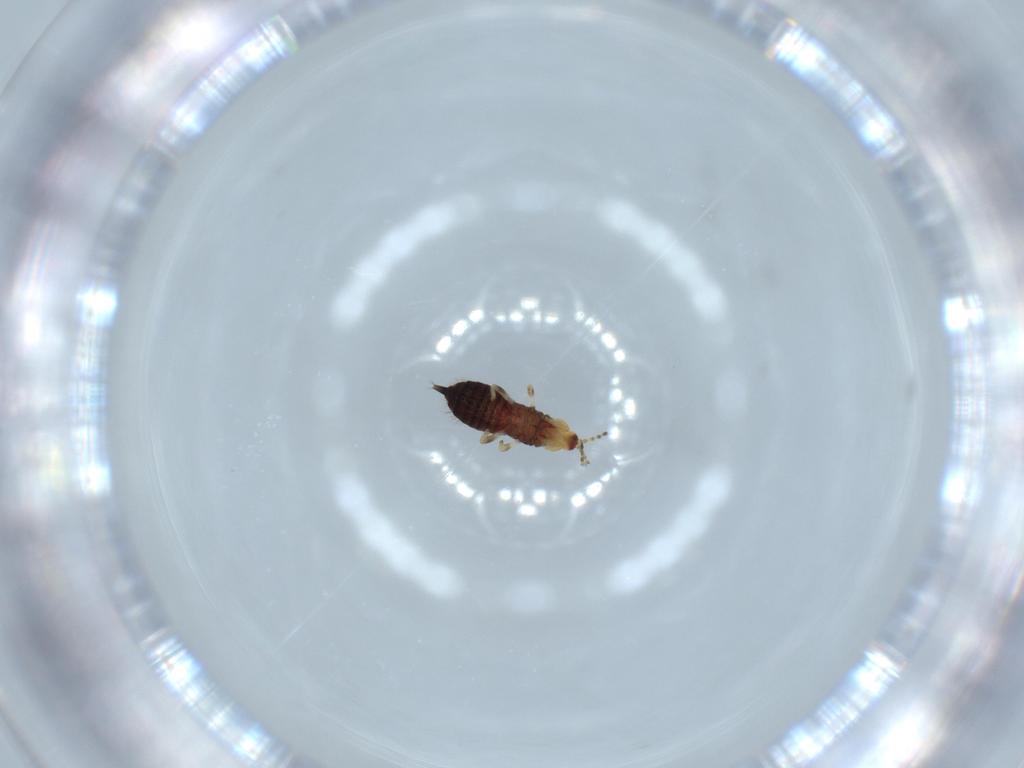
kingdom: Animalia
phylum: Arthropoda
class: Insecta
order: Thysanoptera
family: Phlaeothripidae
